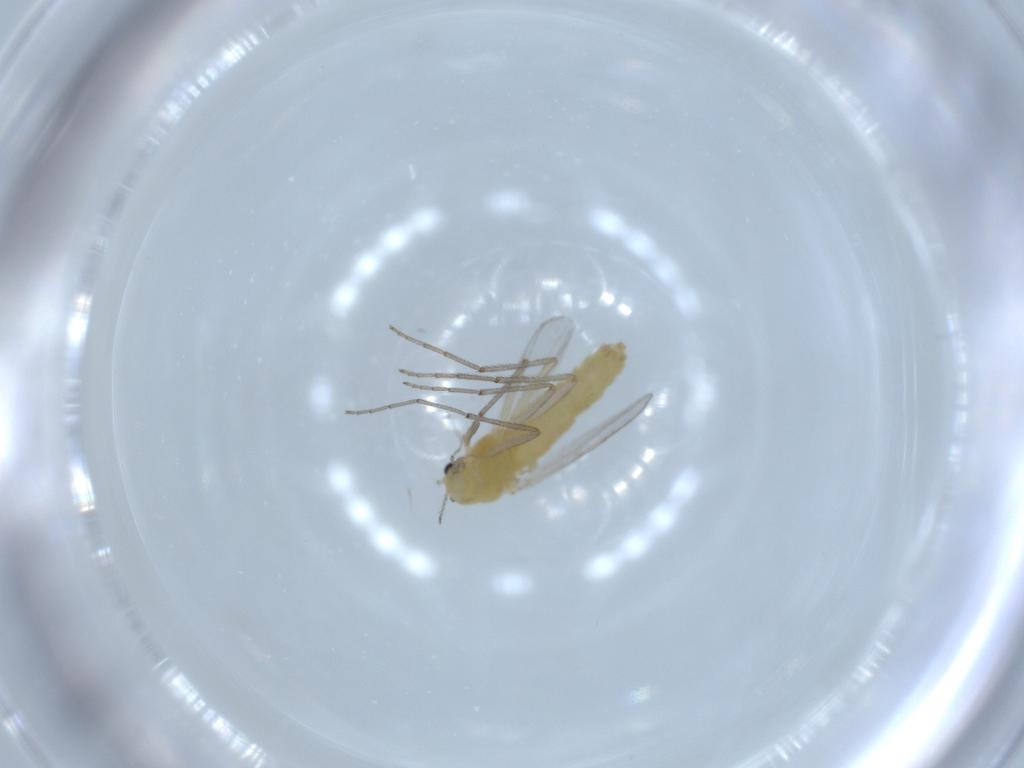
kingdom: Animalia
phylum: Arthropoda
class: Insecta
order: Diptera
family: Chironomidae
